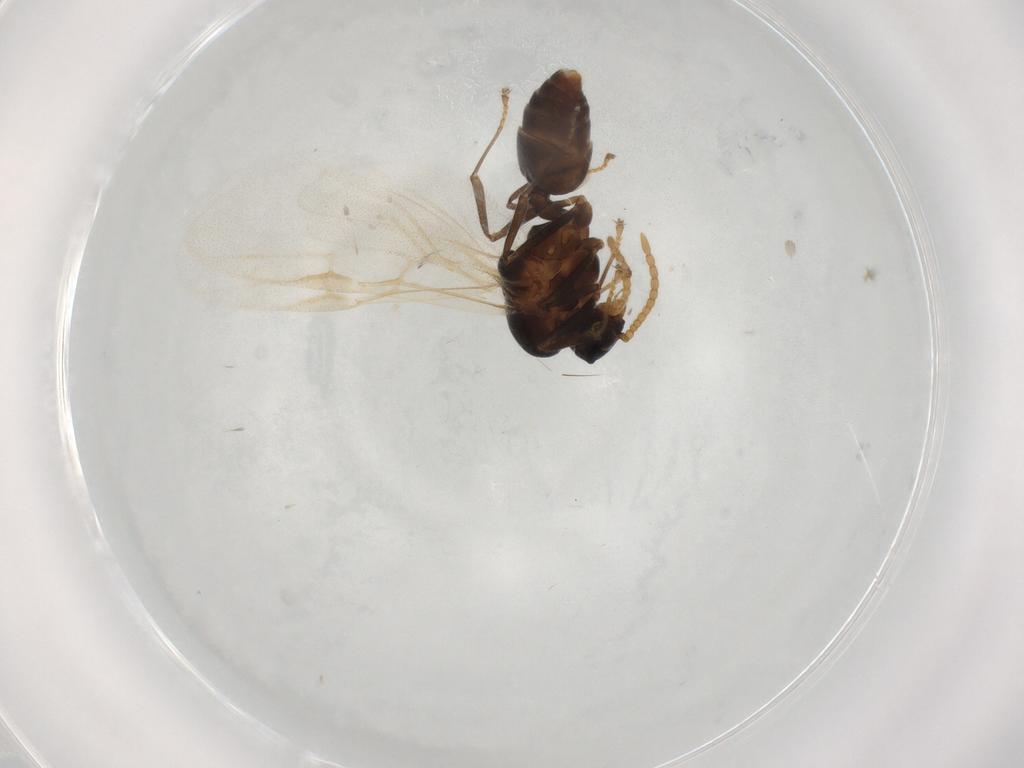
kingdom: Animalia
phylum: Arthropoda
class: Insecta
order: Hymenoptera
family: Formicidae
